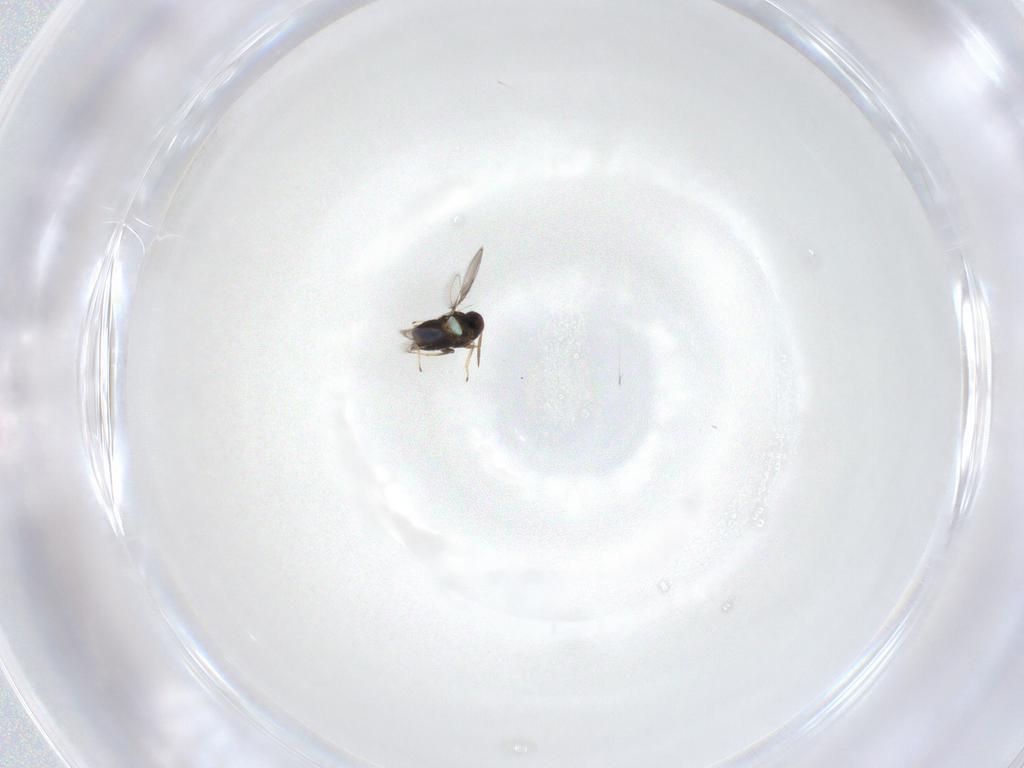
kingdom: Animalia
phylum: Arthropoda
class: Insecta
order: Hymenoptera
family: Aphelinidae
